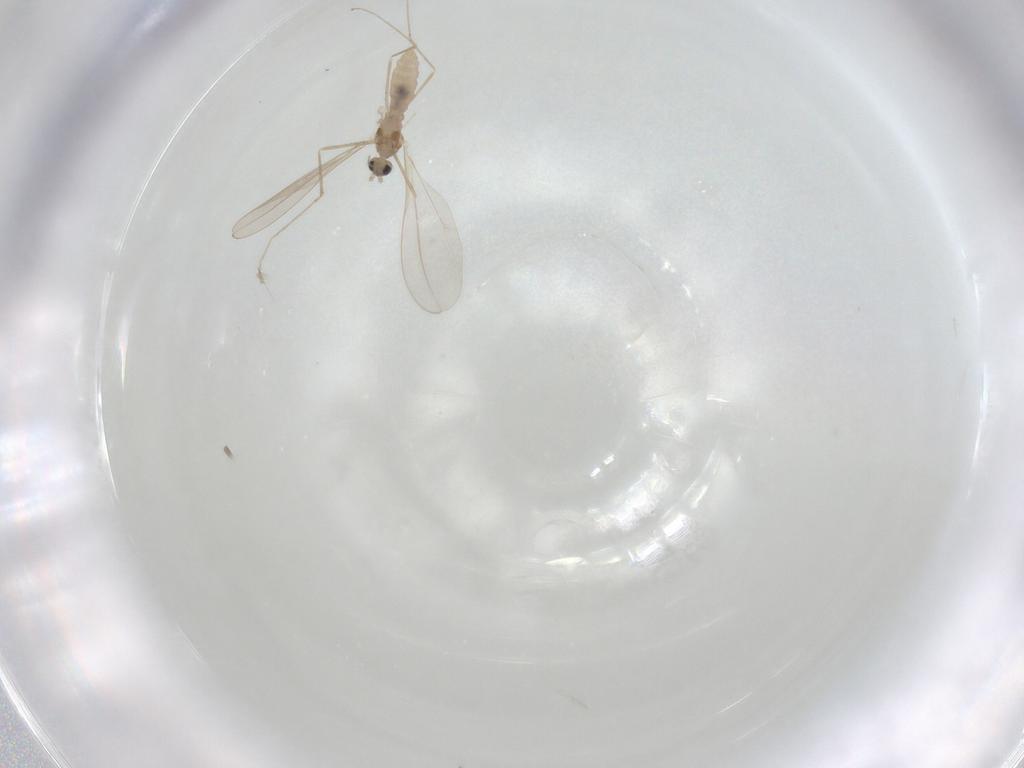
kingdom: Animalia
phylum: Arthropoda
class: Insecta
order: Diptera
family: Cecidomyiidae
